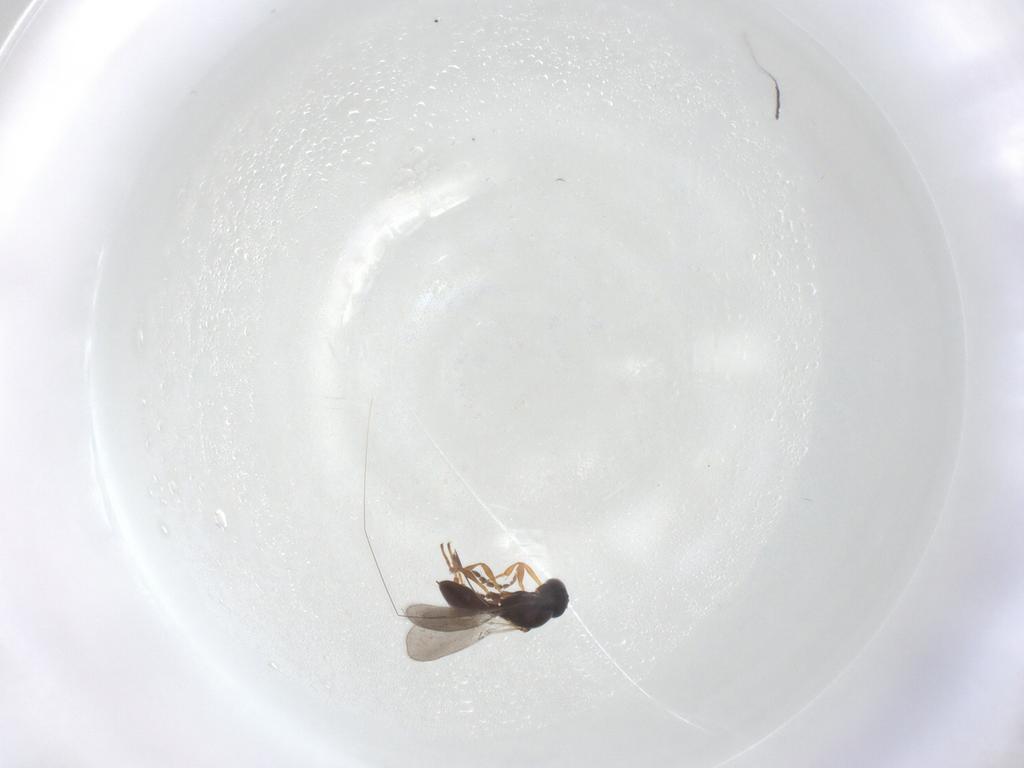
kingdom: Animalia
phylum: Arthropoda
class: Insecta
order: Hymenoptera
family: Platygastridae
